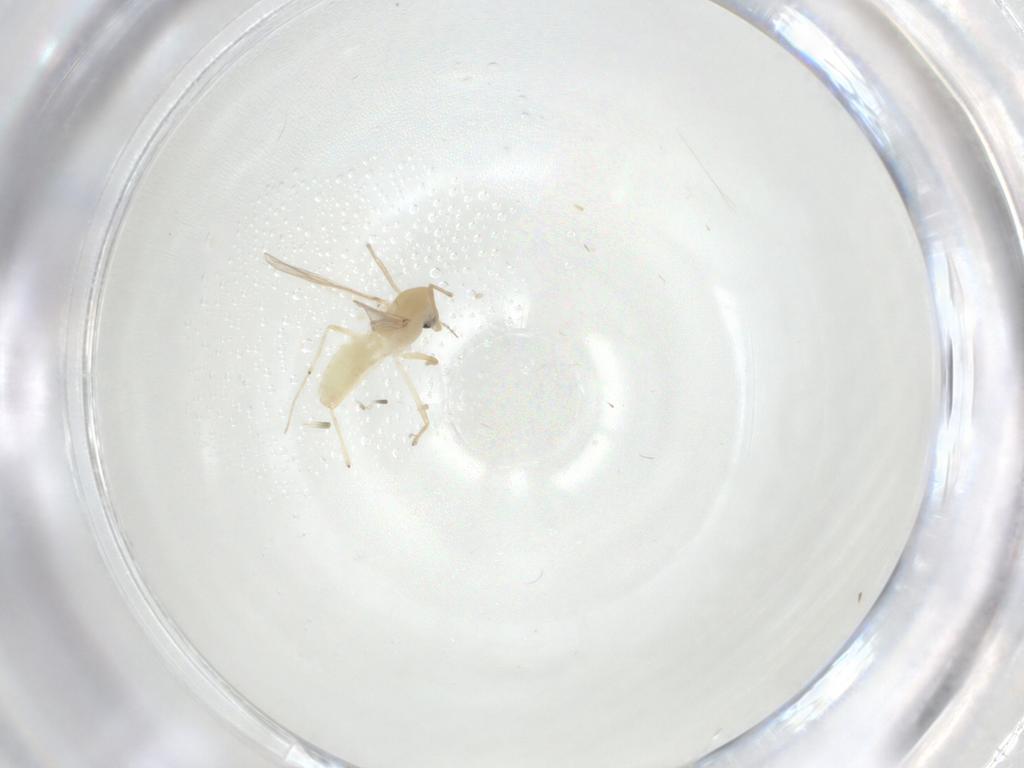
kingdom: Animalia
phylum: Arthropoda
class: Insecta
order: Diptera
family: Chironomidae
